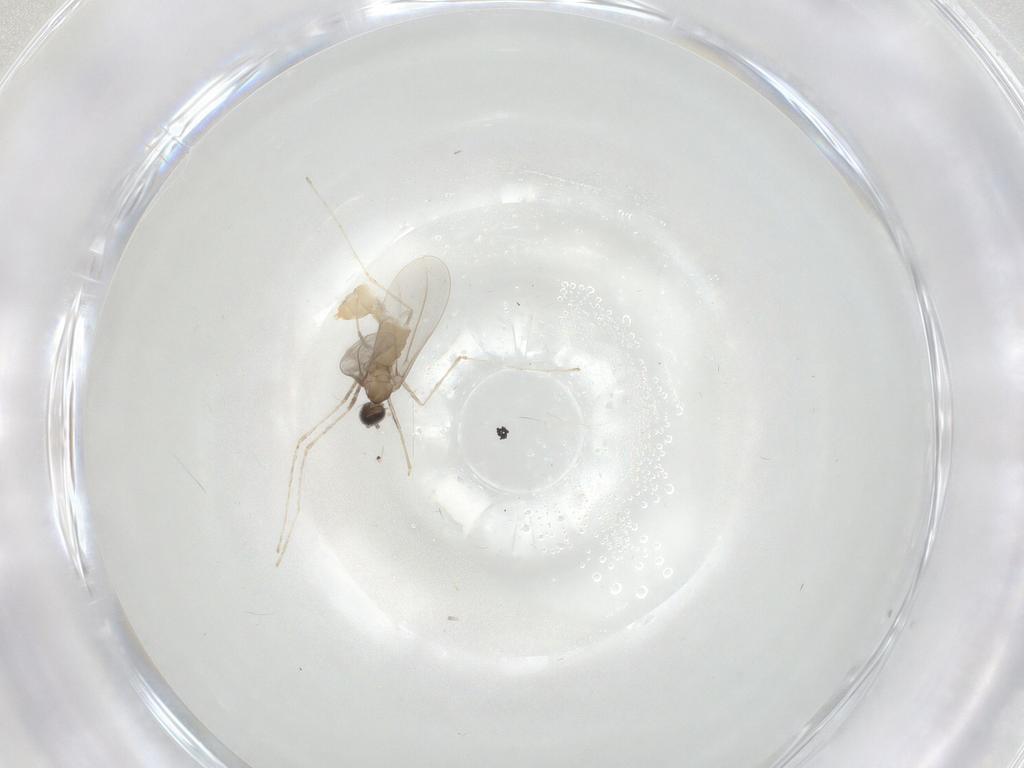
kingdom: Animalia
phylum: Arthropoda
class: Insecta
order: Diptera
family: Cecidomyiidae
